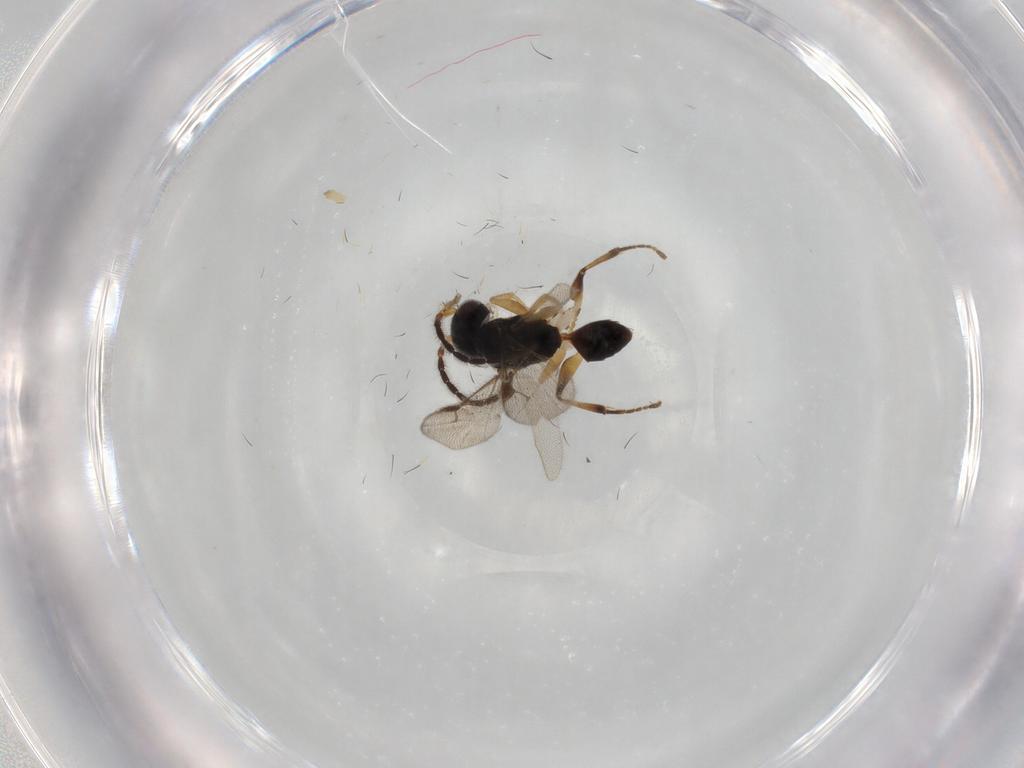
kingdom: Animalia
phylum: Arthropoda
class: Insecta
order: Hymenoptera
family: Dryinidae
